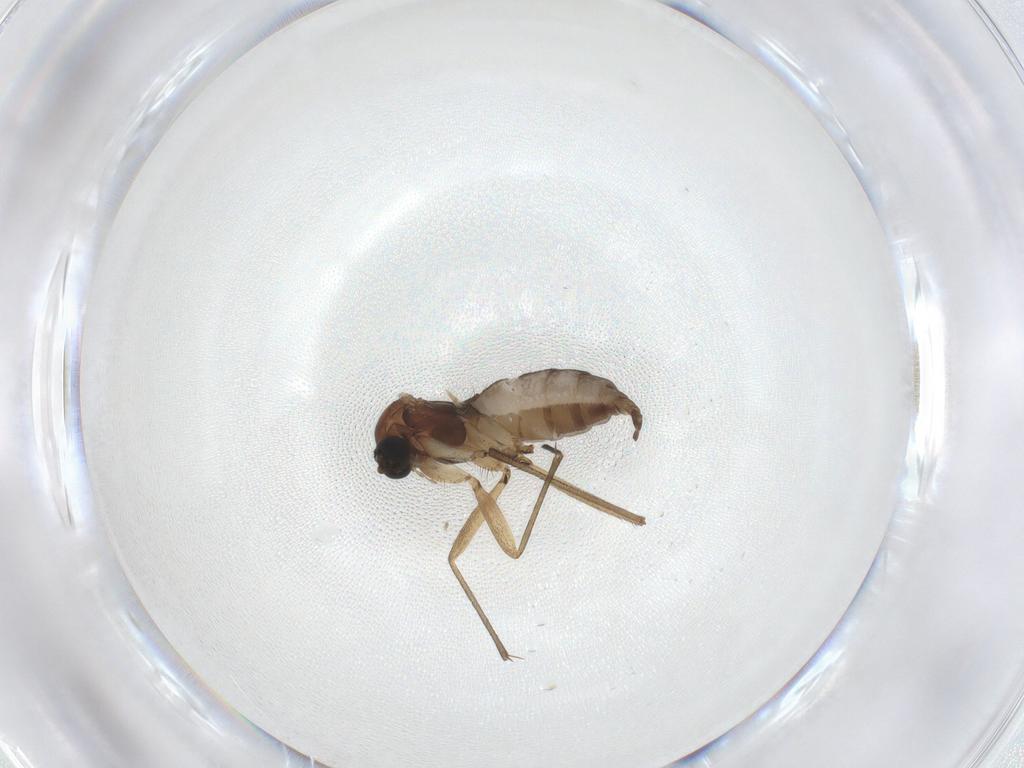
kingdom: Animalia
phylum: Arthropoda
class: Insecta
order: Diptera
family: Sciaridae
